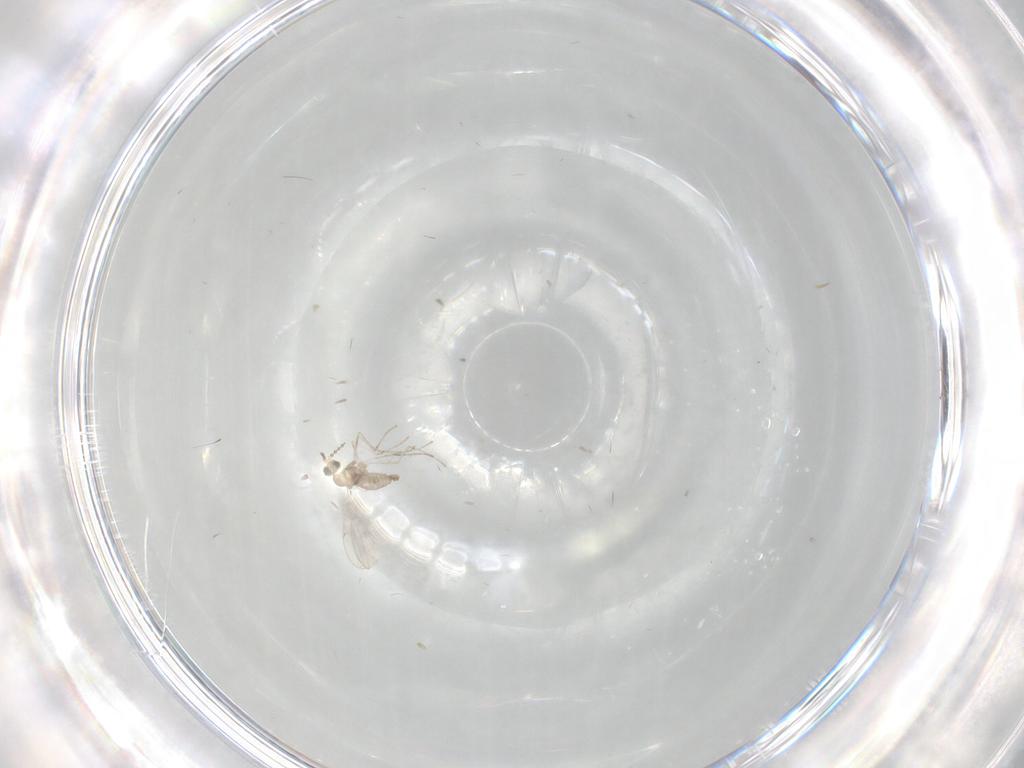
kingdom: Animalia
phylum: Arthropoda
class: Insecta
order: Diptera
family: Cecidomyiidae
